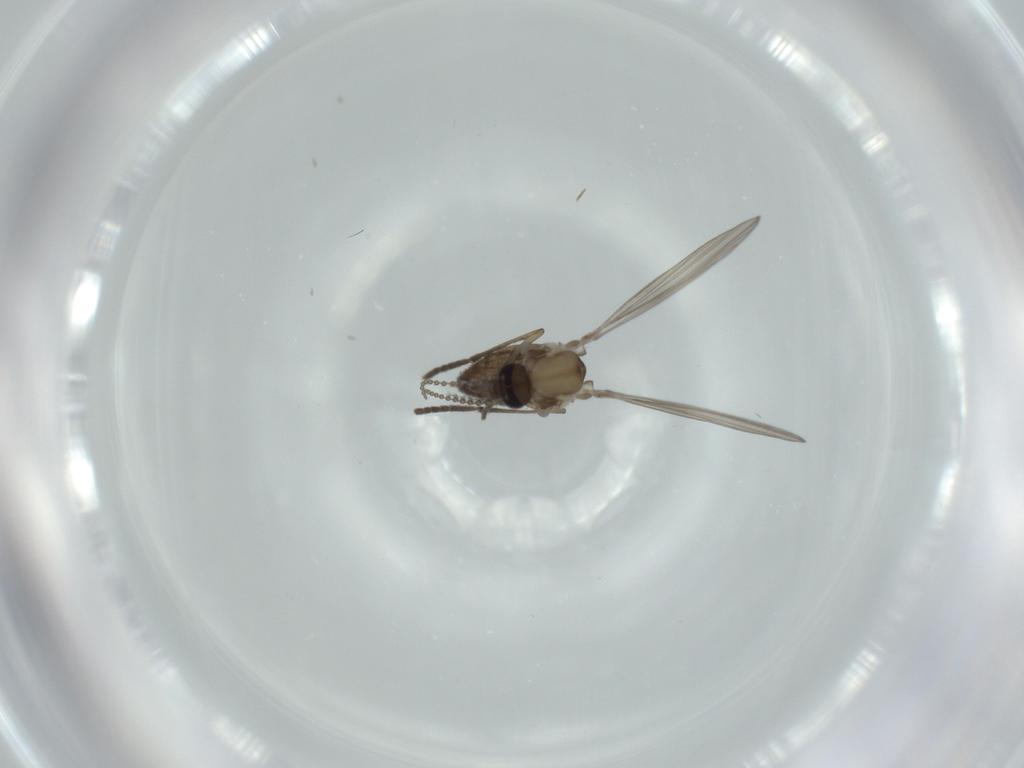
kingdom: Animalia
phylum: Arthropoda
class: Insecta
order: Diptera
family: Psychodidae
